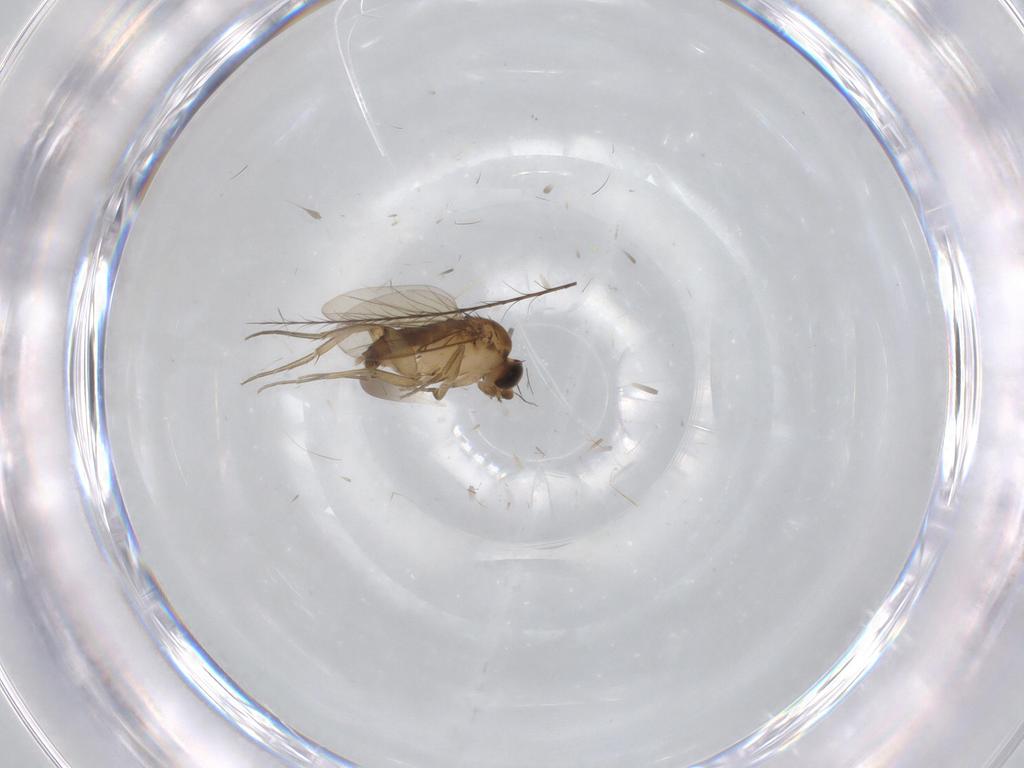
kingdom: Animalia
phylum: Arthropoda
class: Insecta
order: Diptera
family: Phoridae
